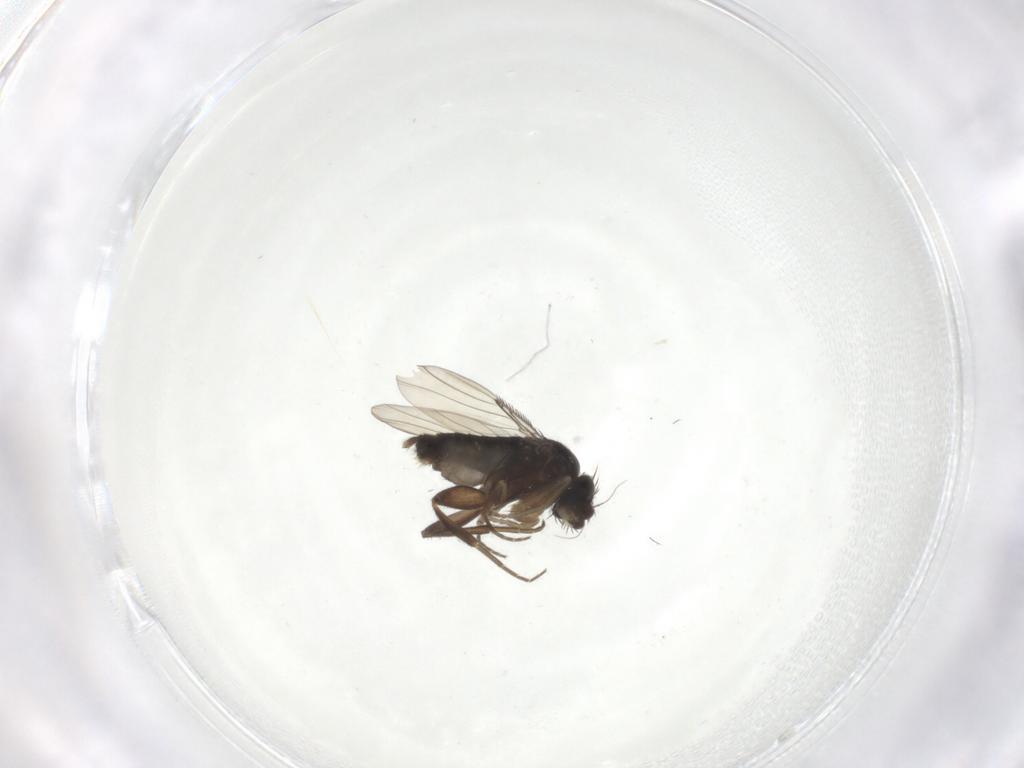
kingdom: Animalia
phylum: Arthropoda
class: Insecta
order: Diptera
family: Phoridae
